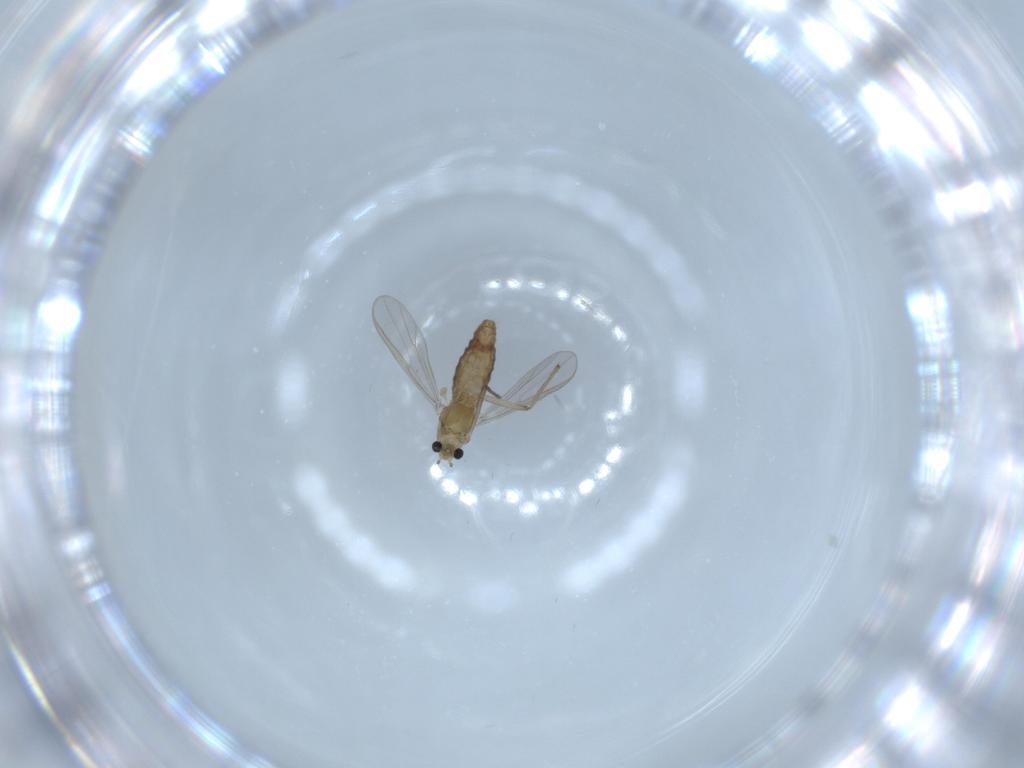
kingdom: Animalia
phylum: Arthropoda
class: Insecta
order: Diptera
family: Chironomidae
